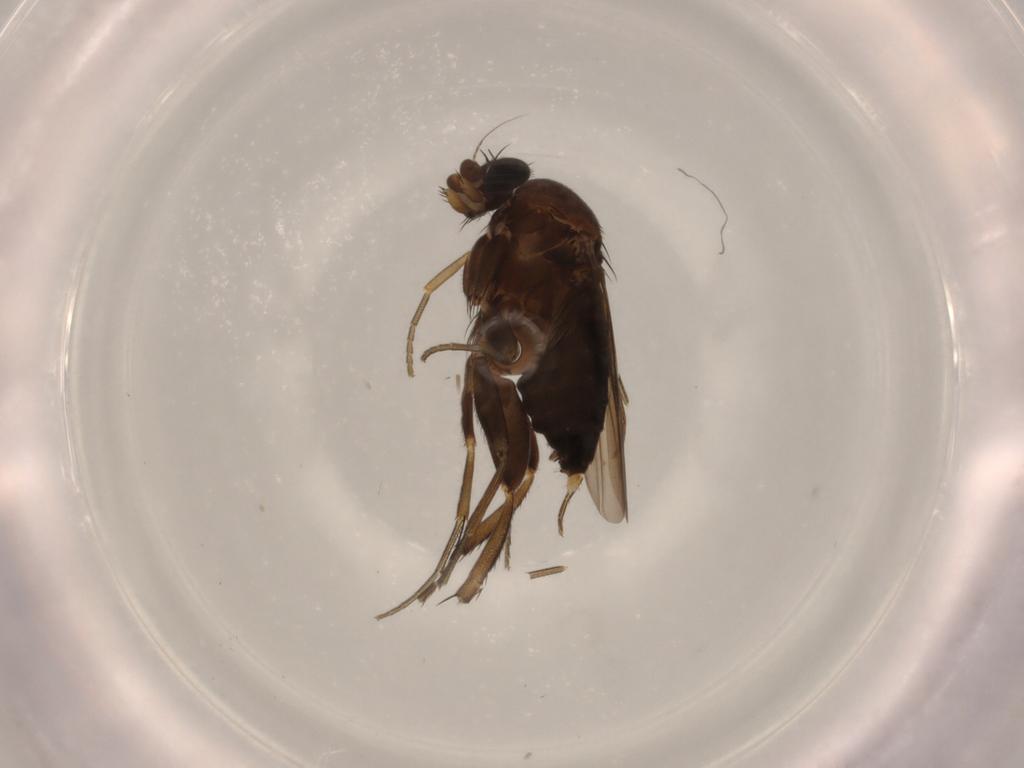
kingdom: Animalia
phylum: Arthropoda
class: Insecta
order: Diptera
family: Phoridae
